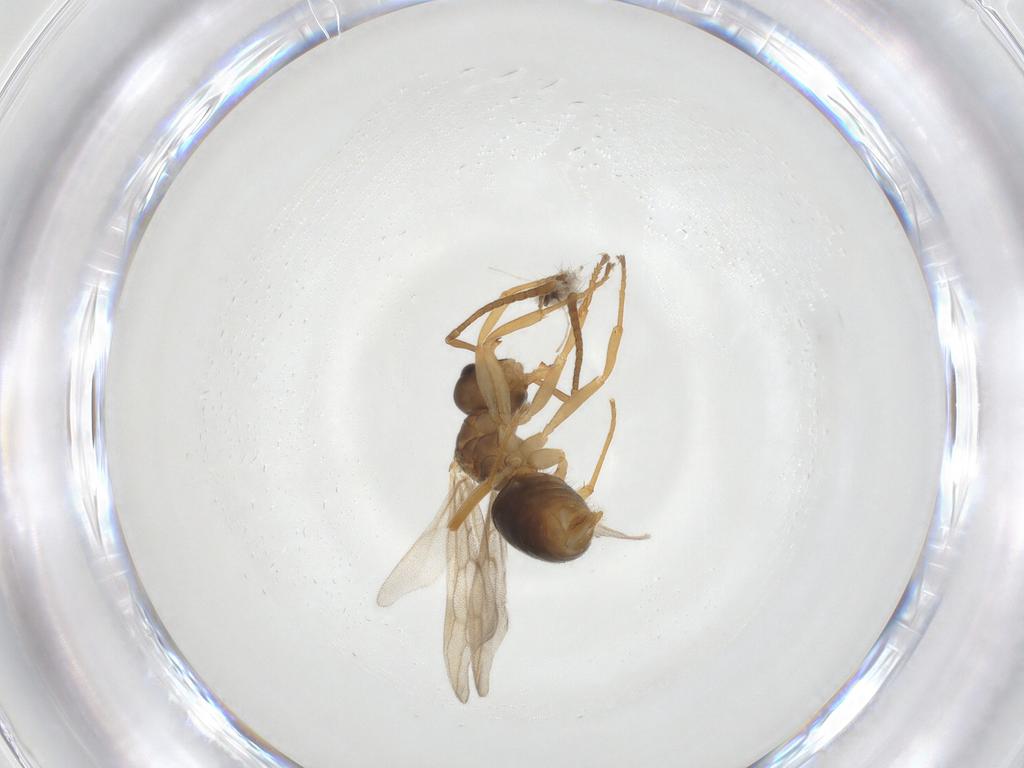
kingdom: Animalia
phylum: Arthropoda
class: Insecta
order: Hymenoptera
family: Ichneumonidae
